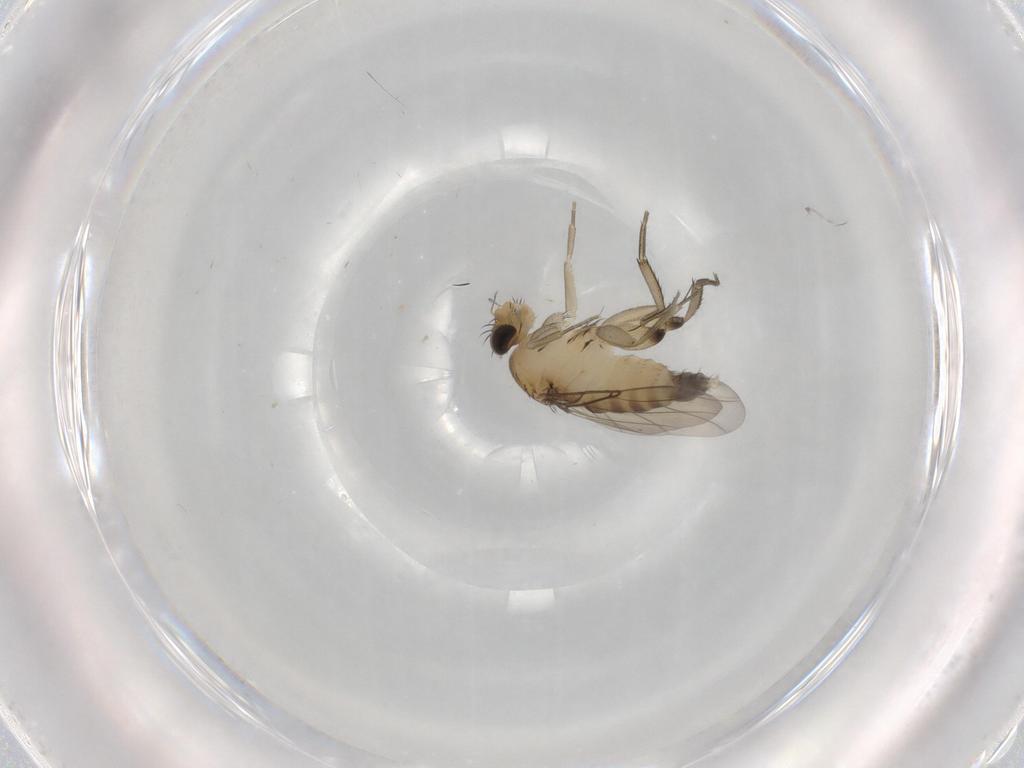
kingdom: Animalia
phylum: Arthropoda
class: Insecta
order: Diptera
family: Phoridae
